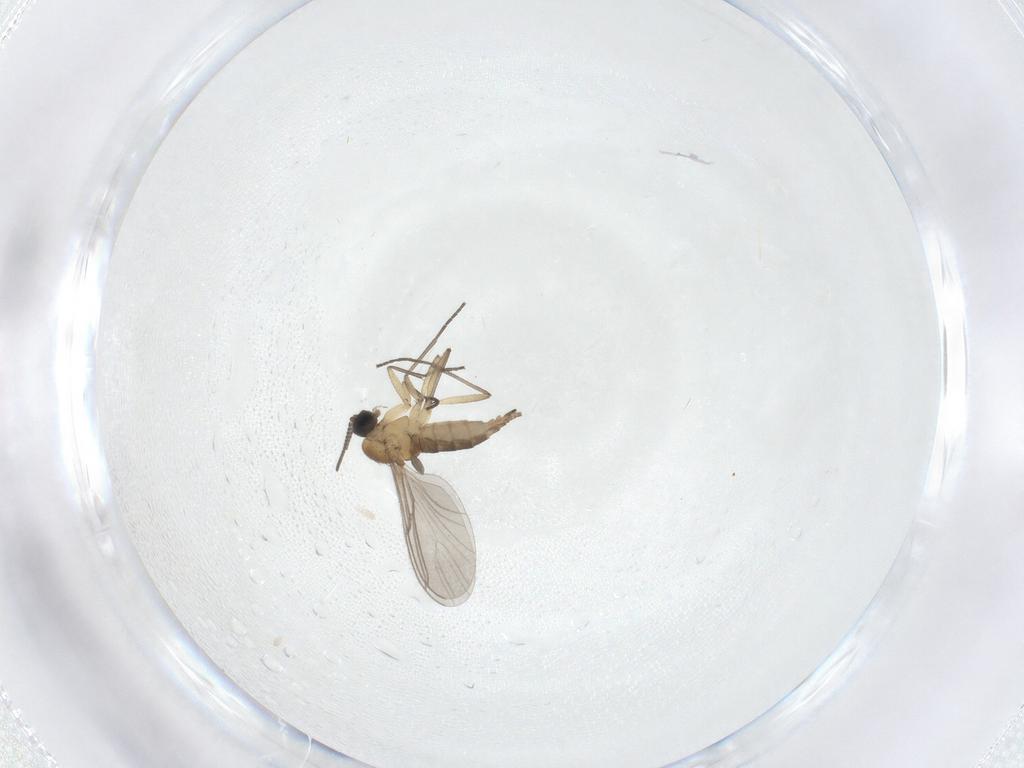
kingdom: Animalia
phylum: Arthropoda
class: Insecta
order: Diptera
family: Sciaridae
